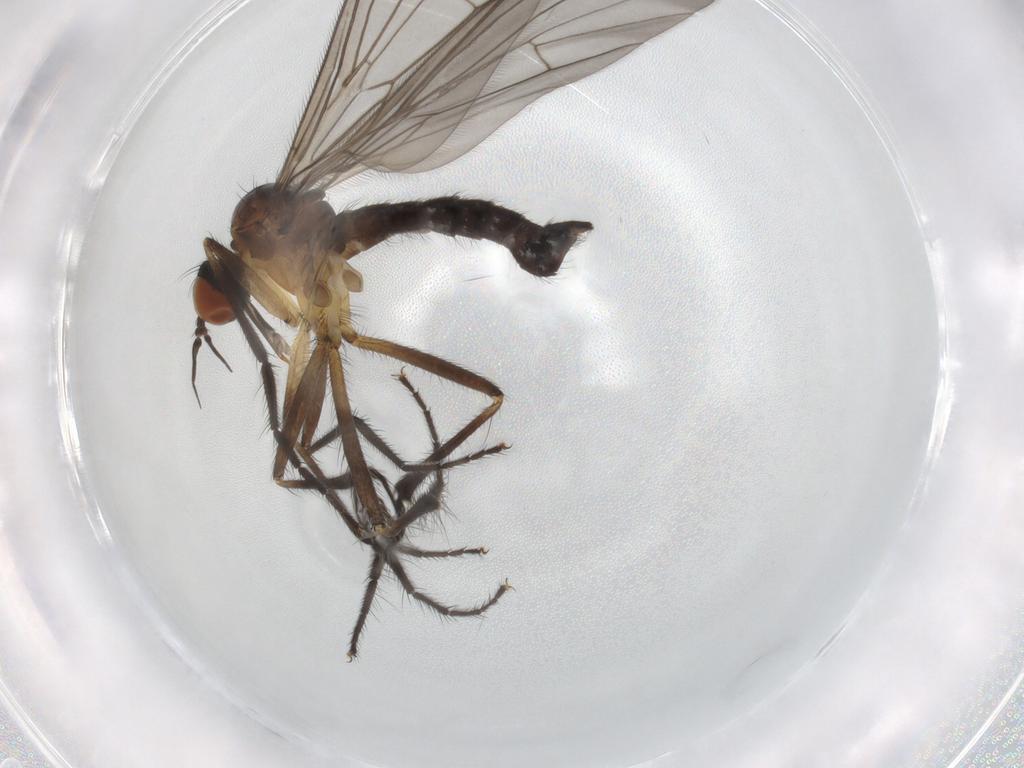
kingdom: Animalia
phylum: Arthropoda
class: Insecta
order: Diptera
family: Empididae
